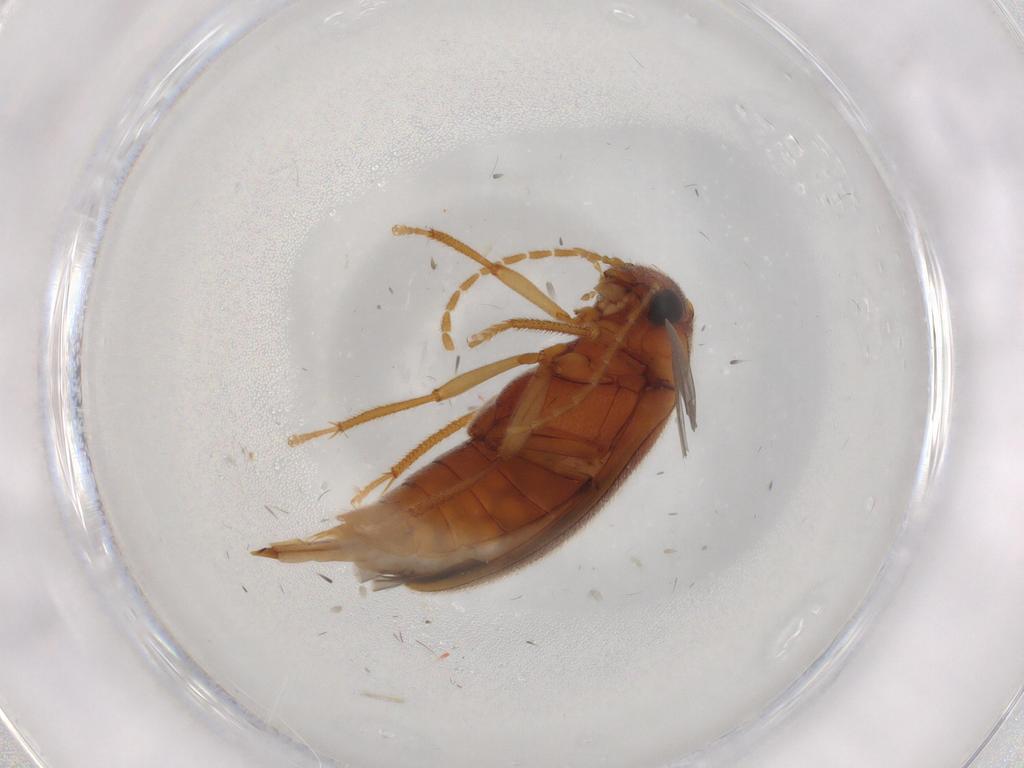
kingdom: Animalia
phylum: Arthropoda
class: Insecta
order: Coleoptera
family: Ptilodactylidae
